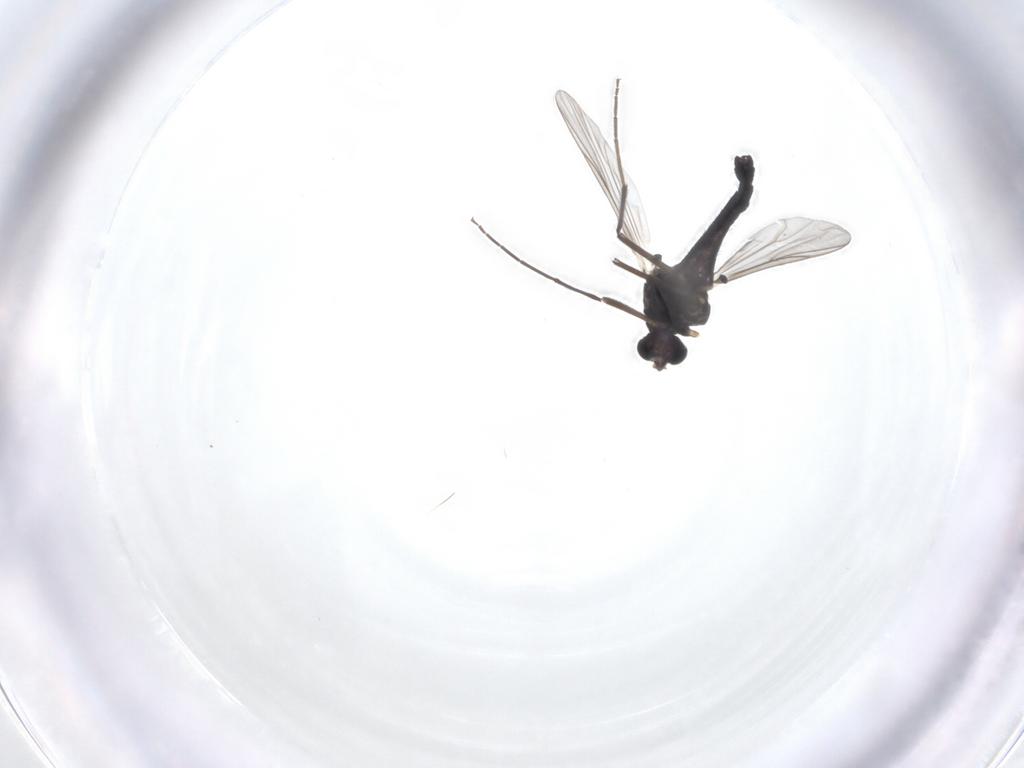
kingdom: Animalia
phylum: Arthropoda
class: Insecta
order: Diptera
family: Chironomidae
